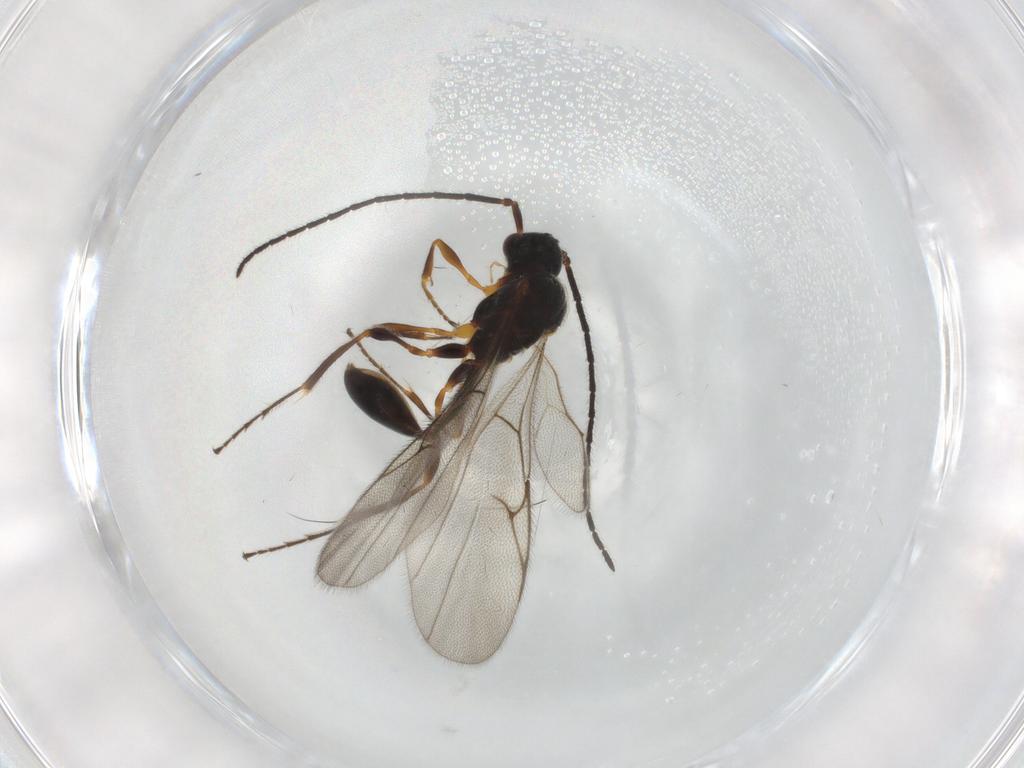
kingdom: Animalia
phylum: Arthropoda
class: Insecta
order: Hymenoptera
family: Diapriidae
